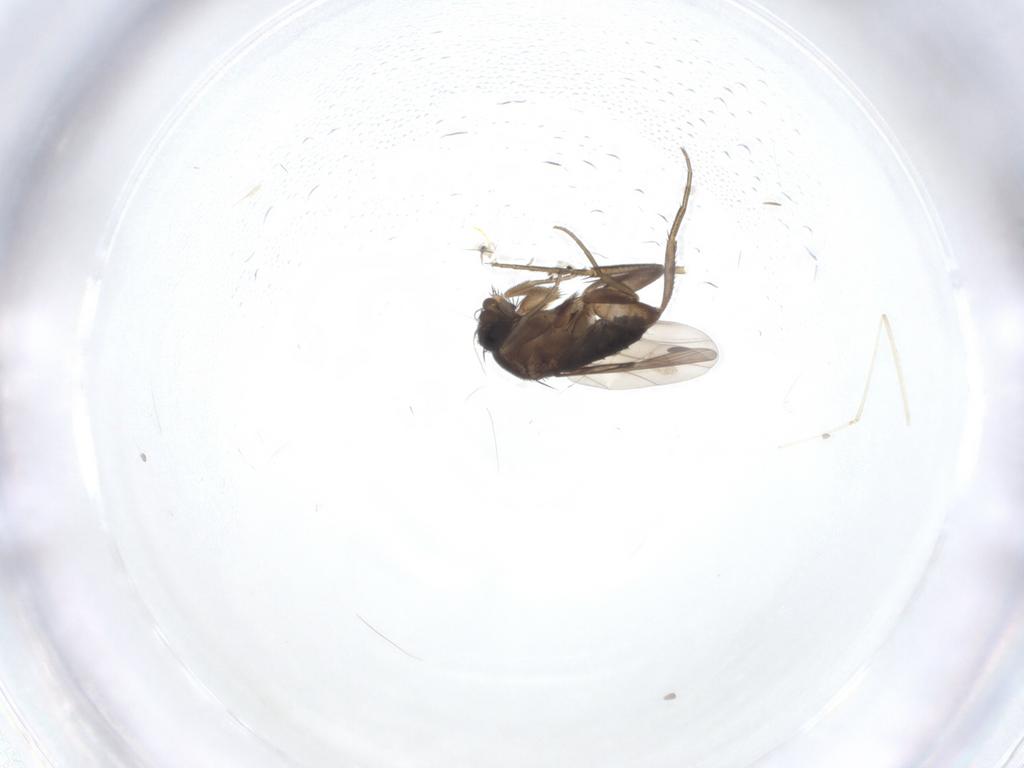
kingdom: Animalia
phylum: Arthropoda
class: Insecta
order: Diptera
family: Phoridae
